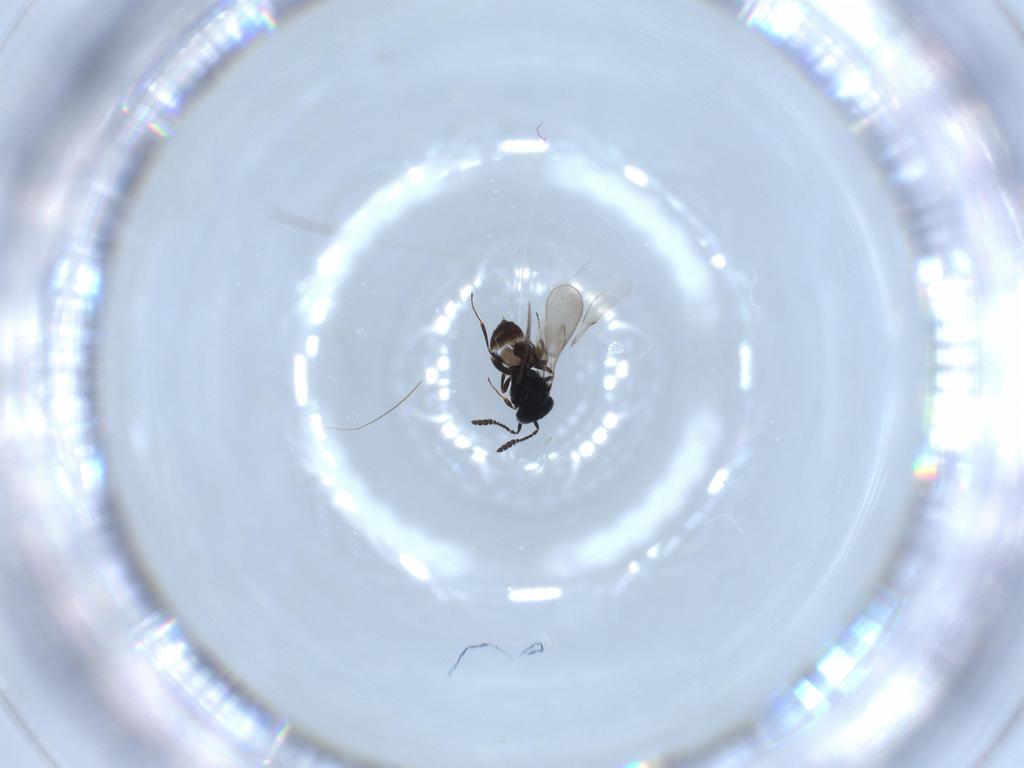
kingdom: Animalia
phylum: Arthropoda
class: Insecta
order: Hymenoptera
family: Scelionidae
